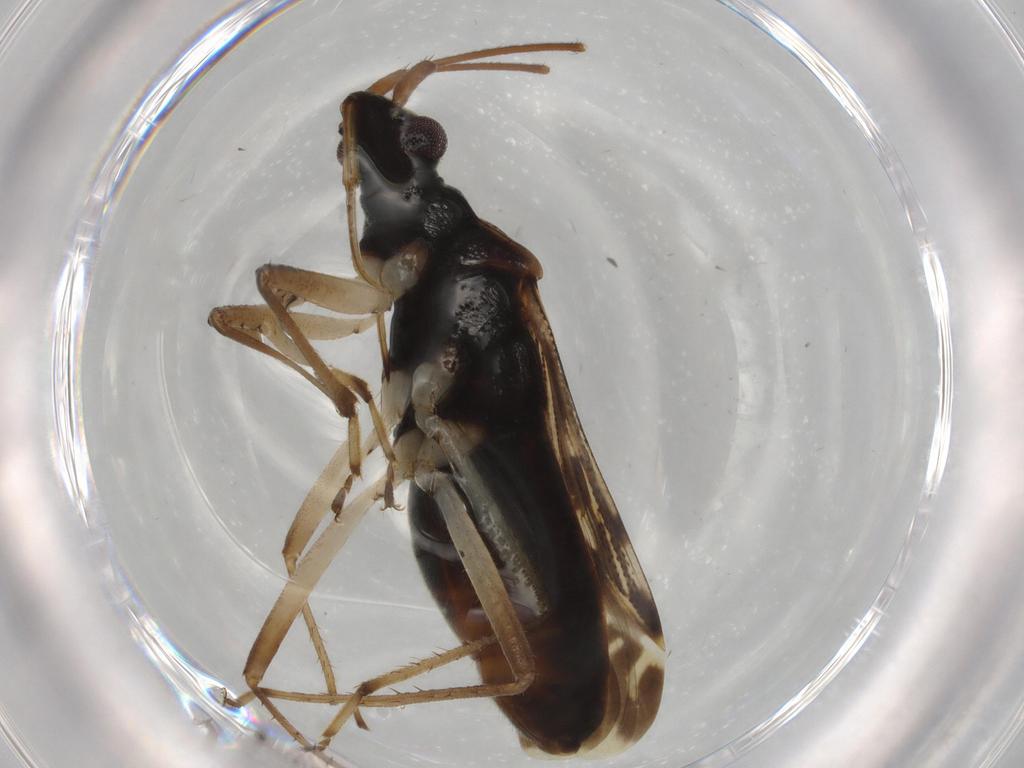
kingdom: Animalia
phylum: Arthropoda
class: Insecta
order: Hemiptera
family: Rhyparochromidae
